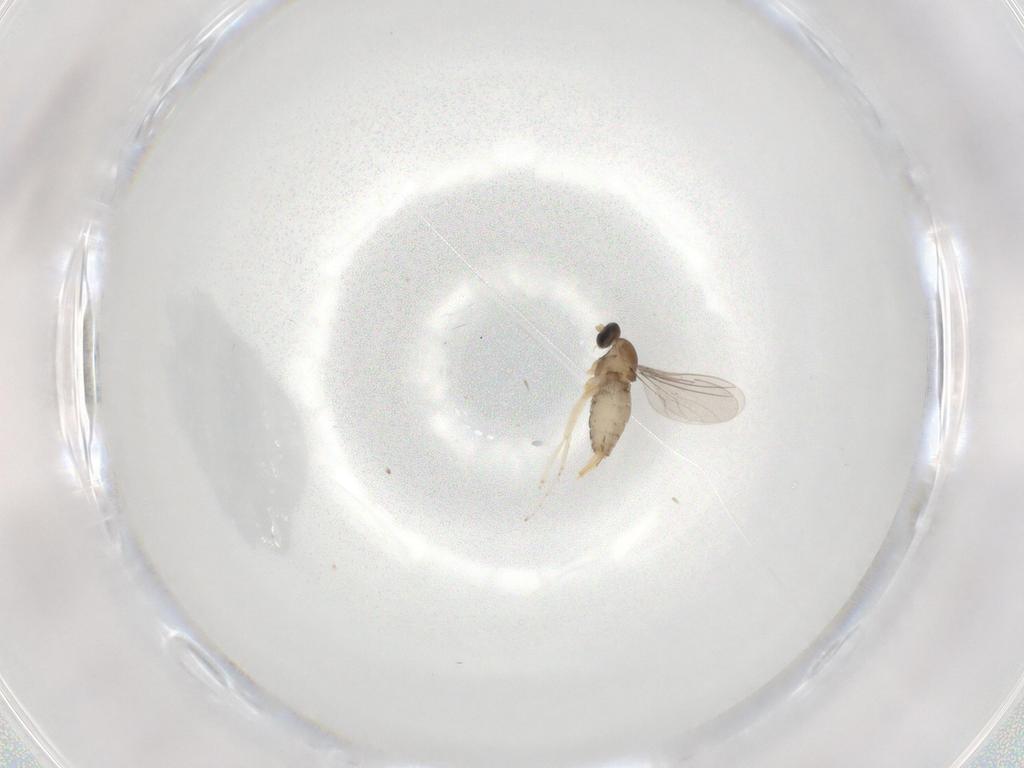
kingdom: Animalia
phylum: Arthropoda
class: Insecta
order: Diptera
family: Cecidomyiidae
